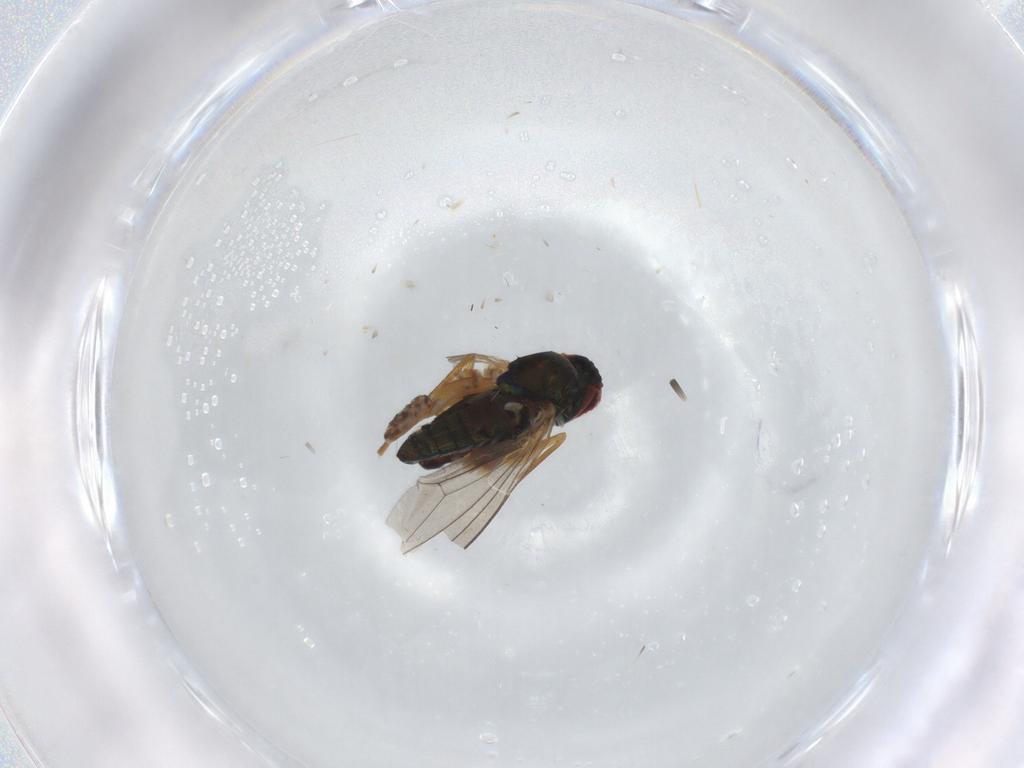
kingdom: Animalia
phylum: Arthropoda
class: Insecta
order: Diptera
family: Dolichopodidae
